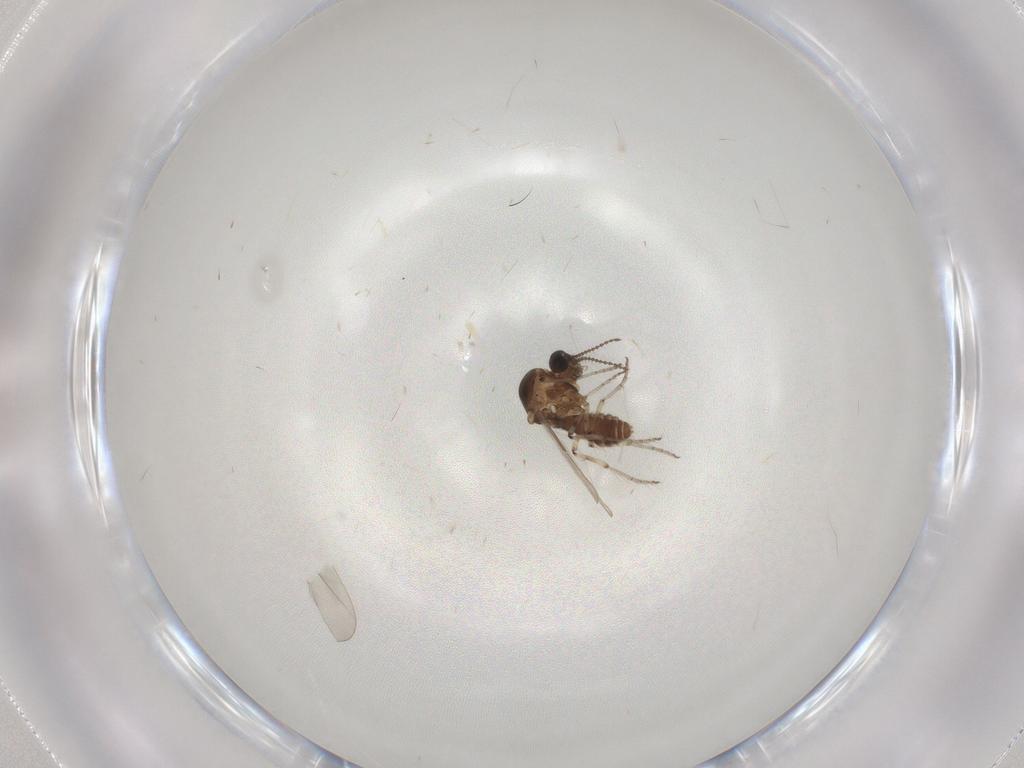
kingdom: Animalia
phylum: Arthropoda
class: Insecta
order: Diptera
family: Ceratopogonidae
